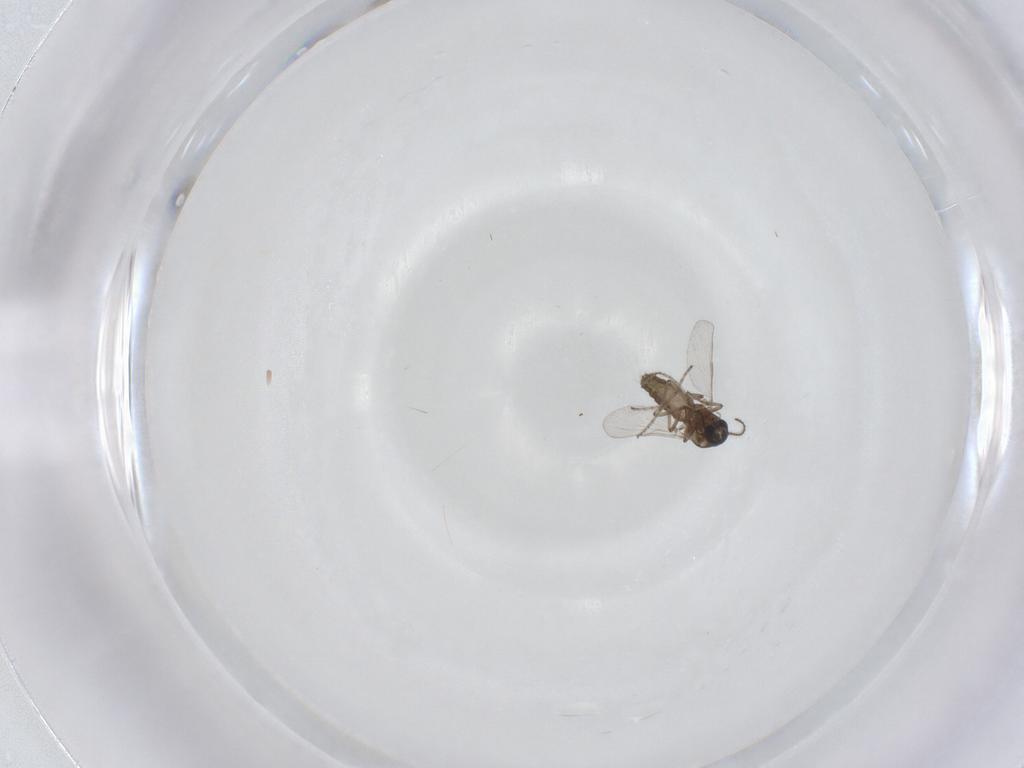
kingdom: Animalia
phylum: Arthropoda
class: Insecta
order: Diptera
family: Ceratopogonidae
